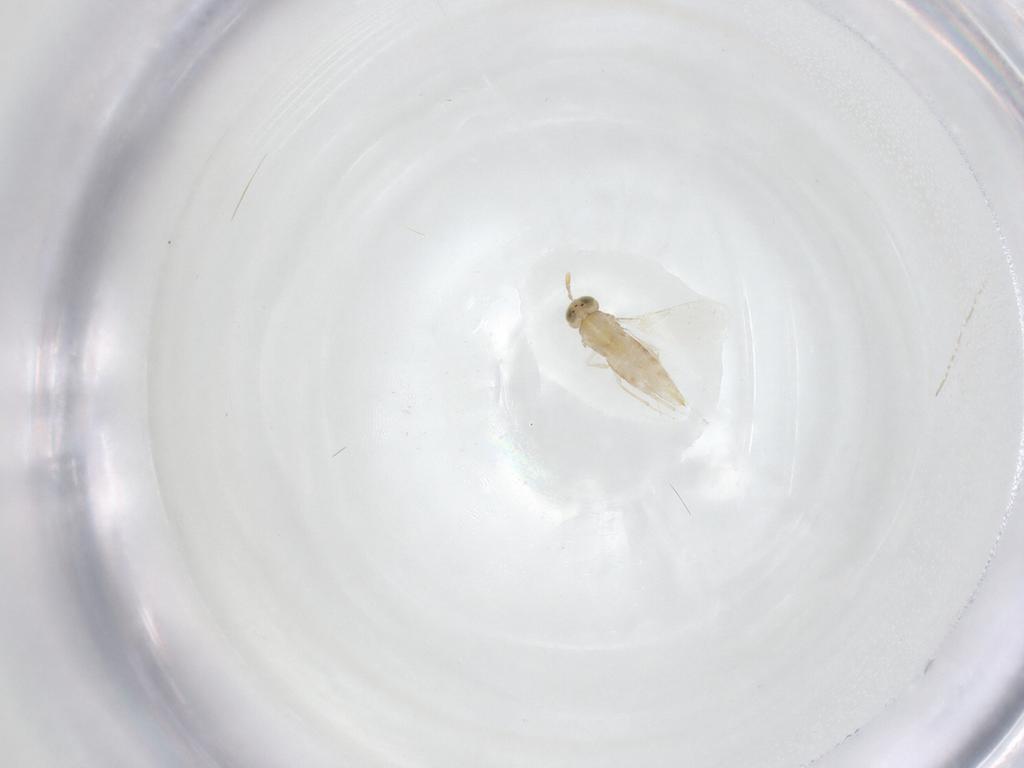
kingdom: Animalia
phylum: Arthropoda
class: Insecta
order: Hymenoptera
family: Aphelinidae
